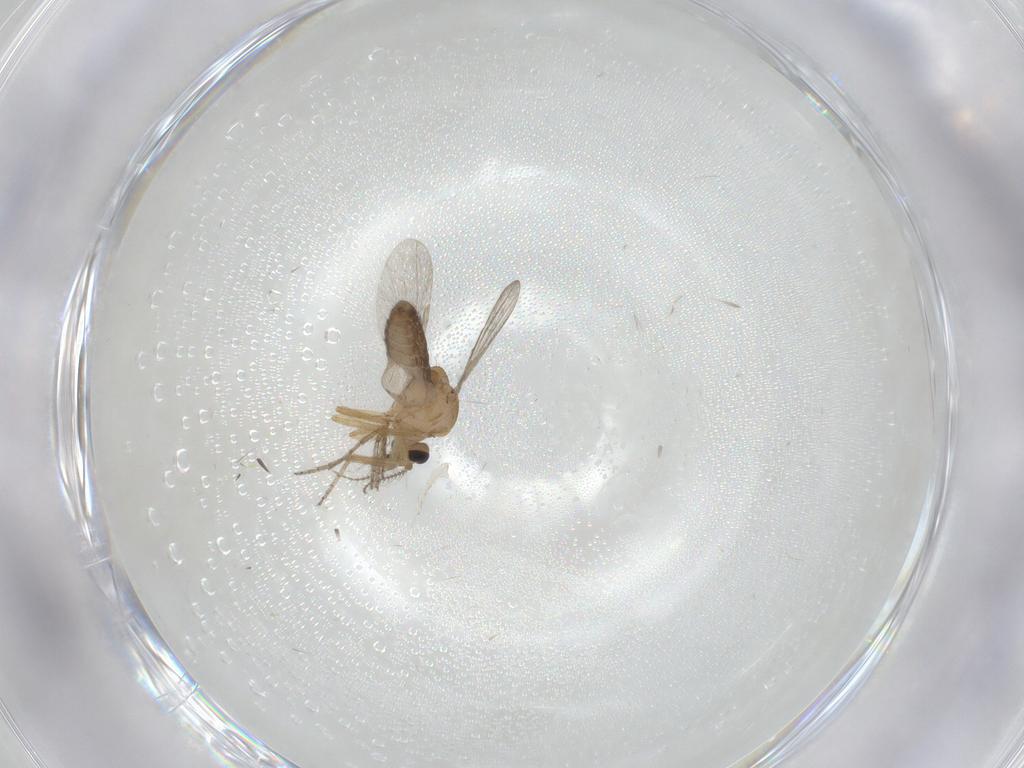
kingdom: Animalia
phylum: Arthropoda
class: Insecta
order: Diptera
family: Ceratopogonidae
